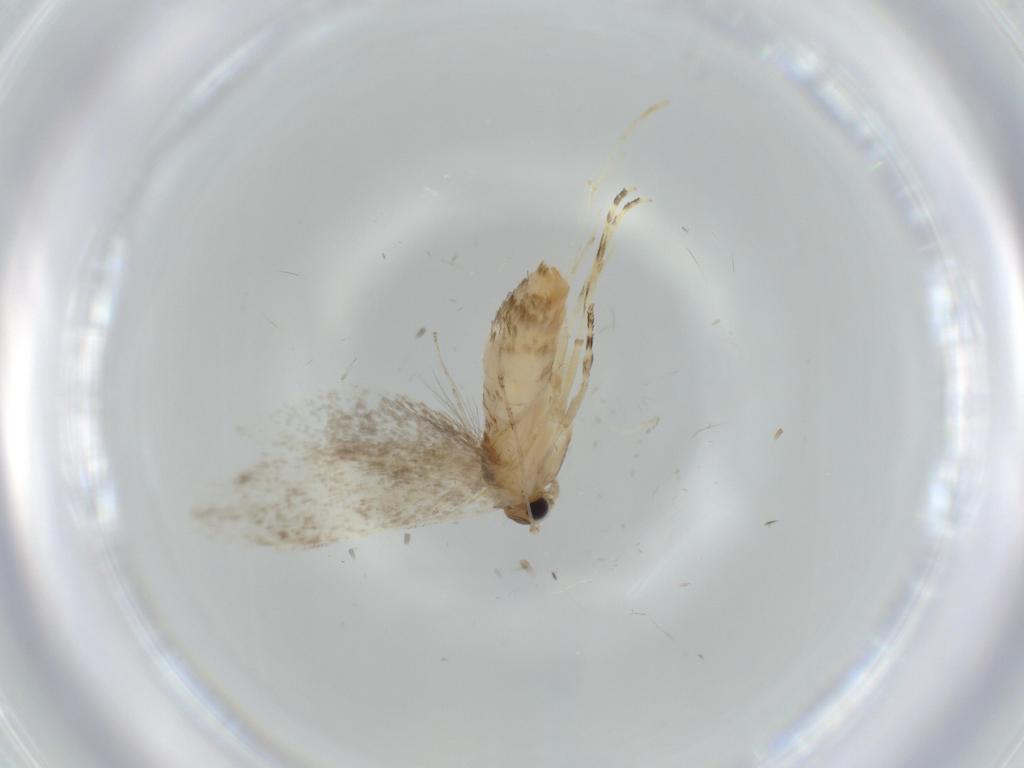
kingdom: Animalia
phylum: Arthropoda
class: Insecta
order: Lepidoptera
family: Tineidae
